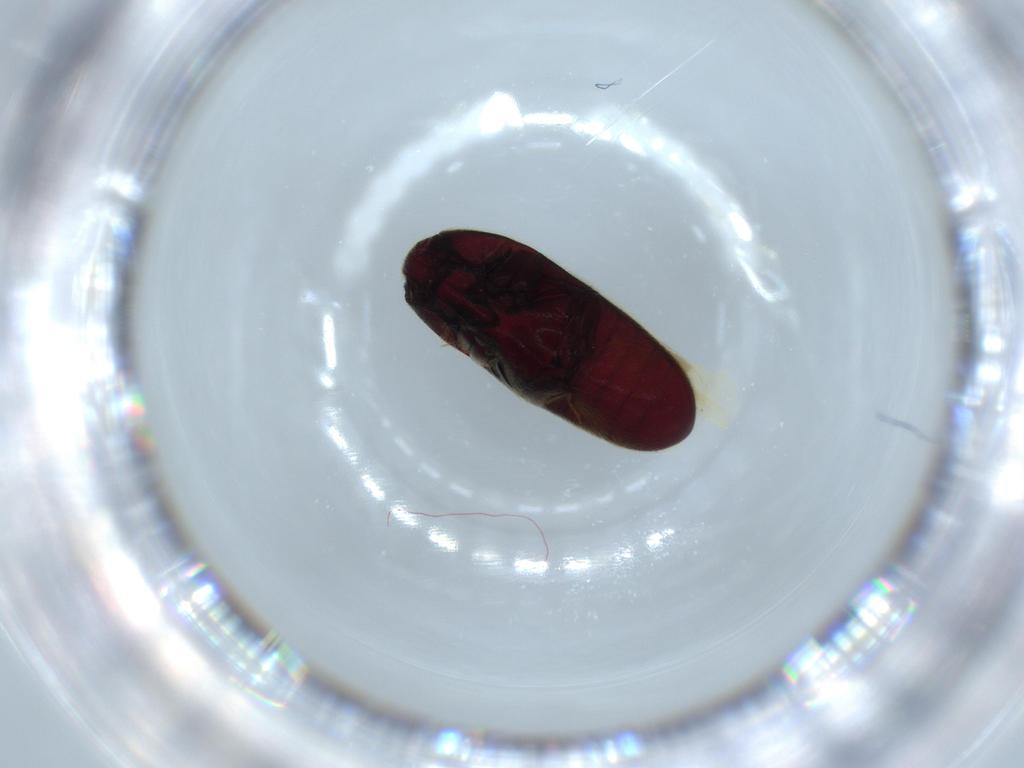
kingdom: Animalia
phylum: Arthropoda
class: Insecta
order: Coleoptera
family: Throscidae
